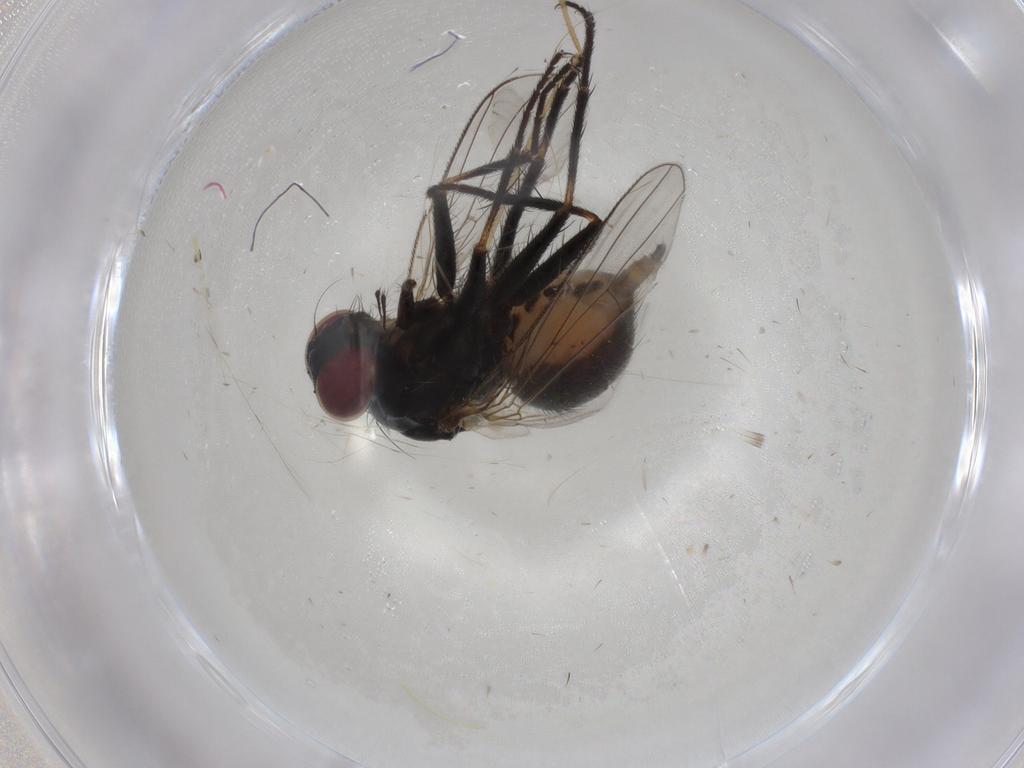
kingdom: Animalia
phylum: Arthropoda
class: Insecta
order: Diptera
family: Muscidae
